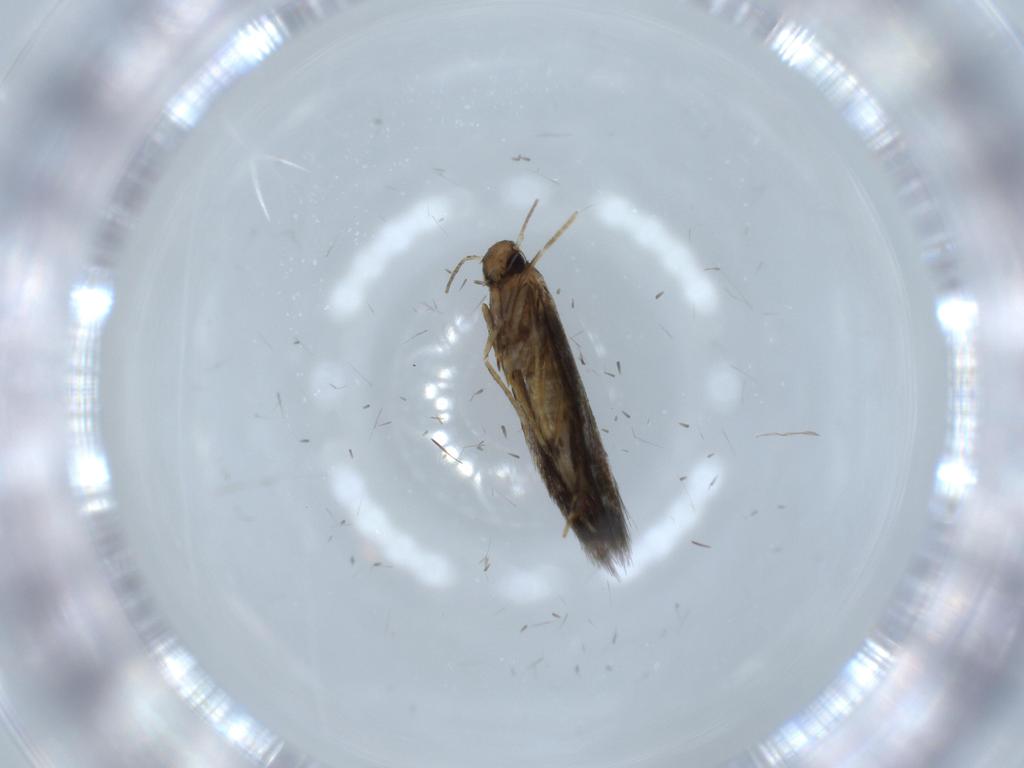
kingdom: Animalia
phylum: Arthropoda
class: Insecta
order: Lepidoptera
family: Heliozelidae
